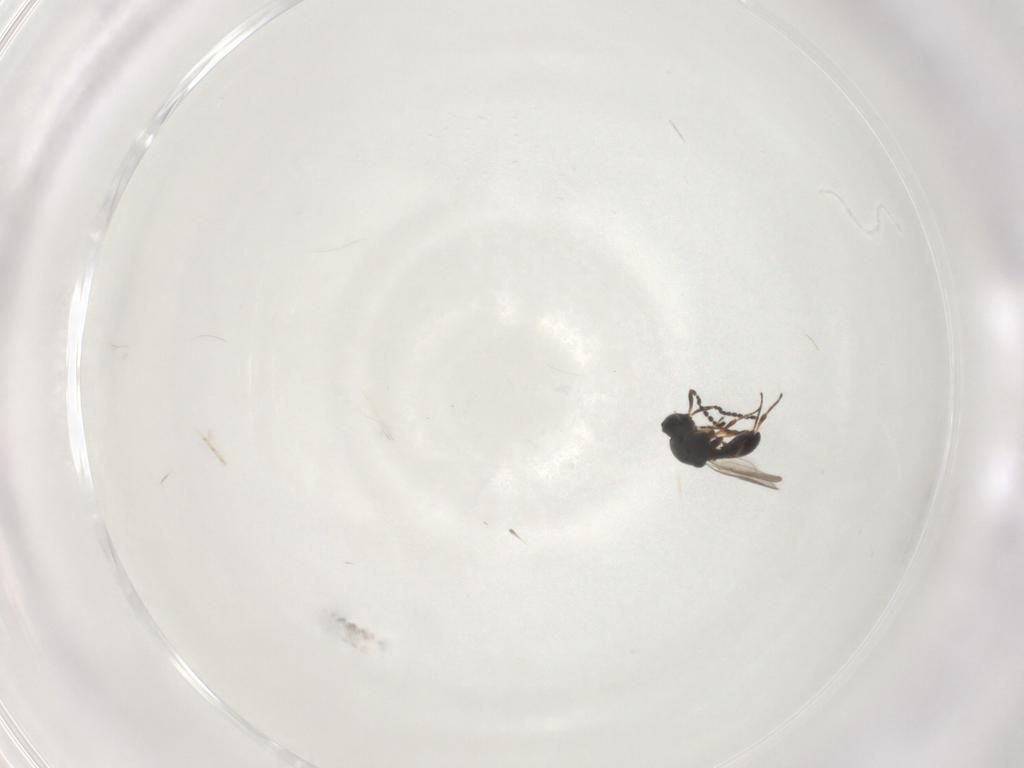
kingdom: Animalia
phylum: Arthropoda
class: Insecta
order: Hymenoptera
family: Platygastridae
